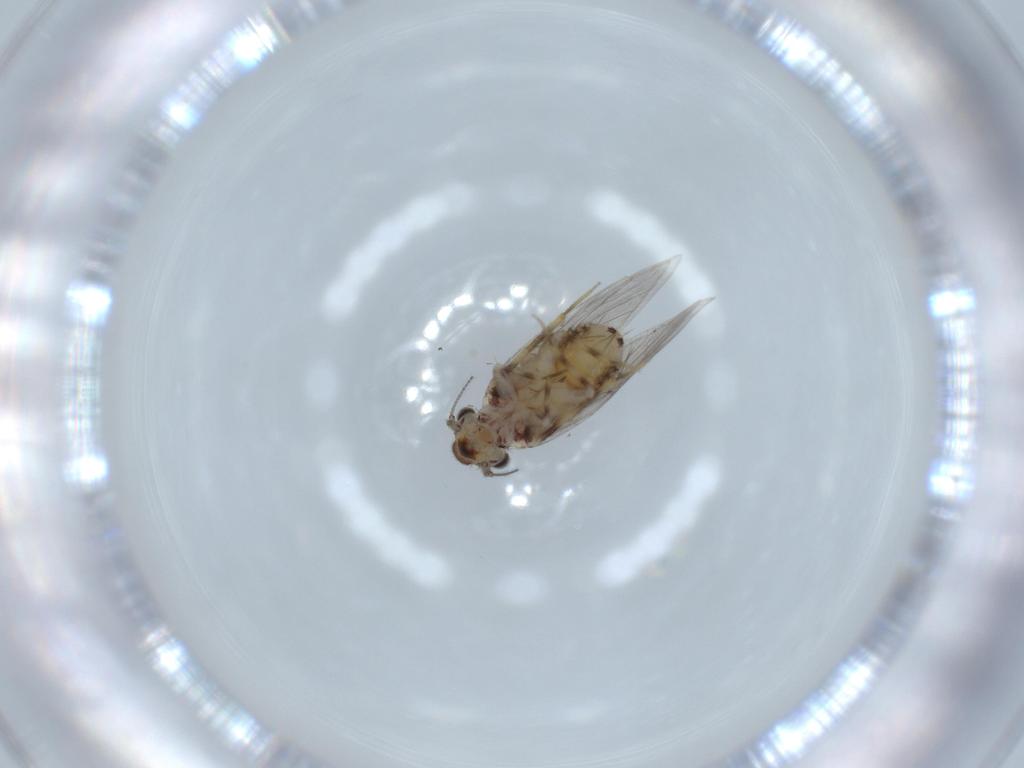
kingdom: Animalia
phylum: Arthropoda
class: Insecta
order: Psocodea
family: Lepidopsocidae
